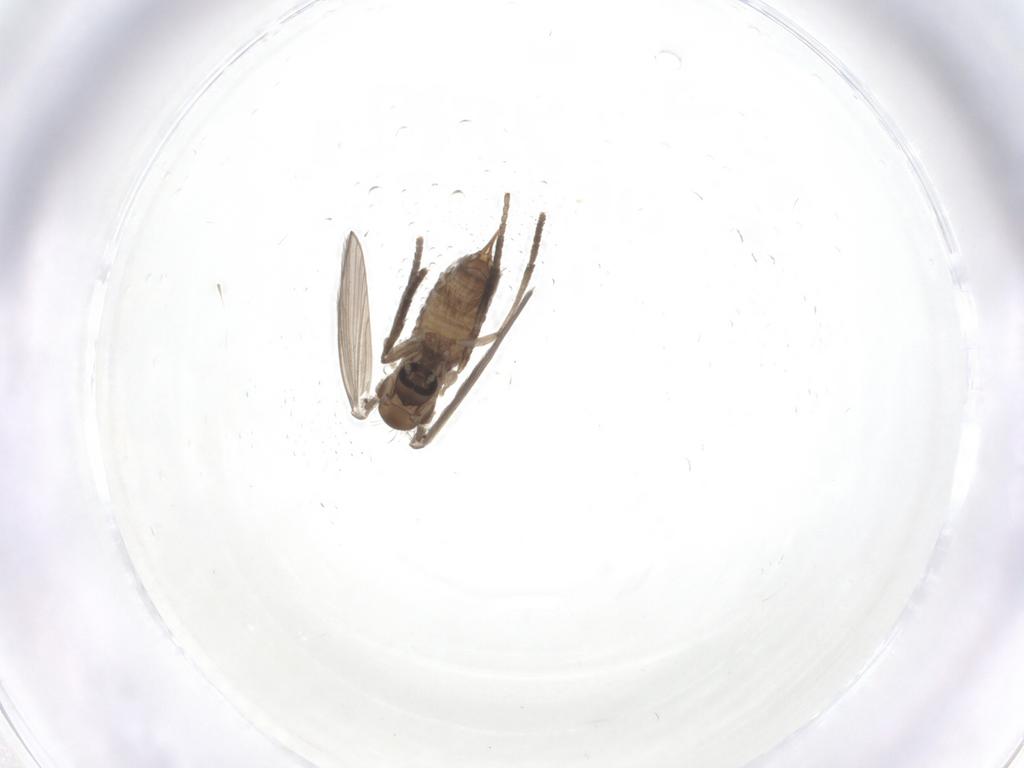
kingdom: Animalia
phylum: Arthropoda
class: Insecta
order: Diptera
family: Psychodidae
